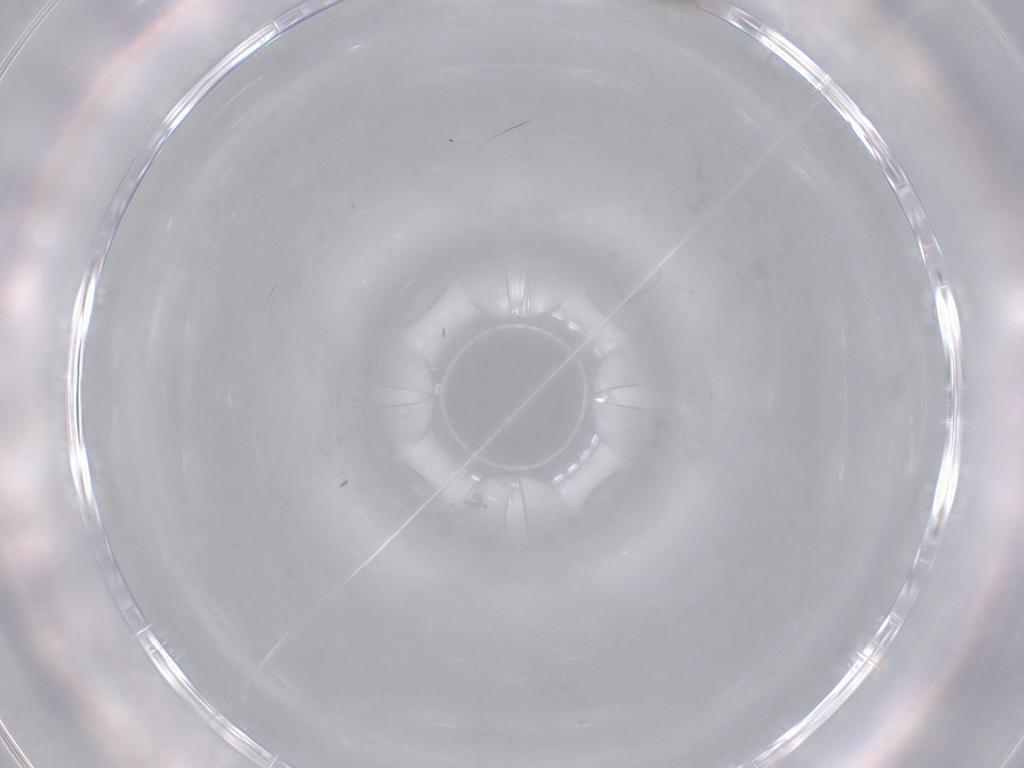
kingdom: Animalia
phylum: Arthropoda
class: Insecta
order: Diptera
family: Cecidomyiidae
